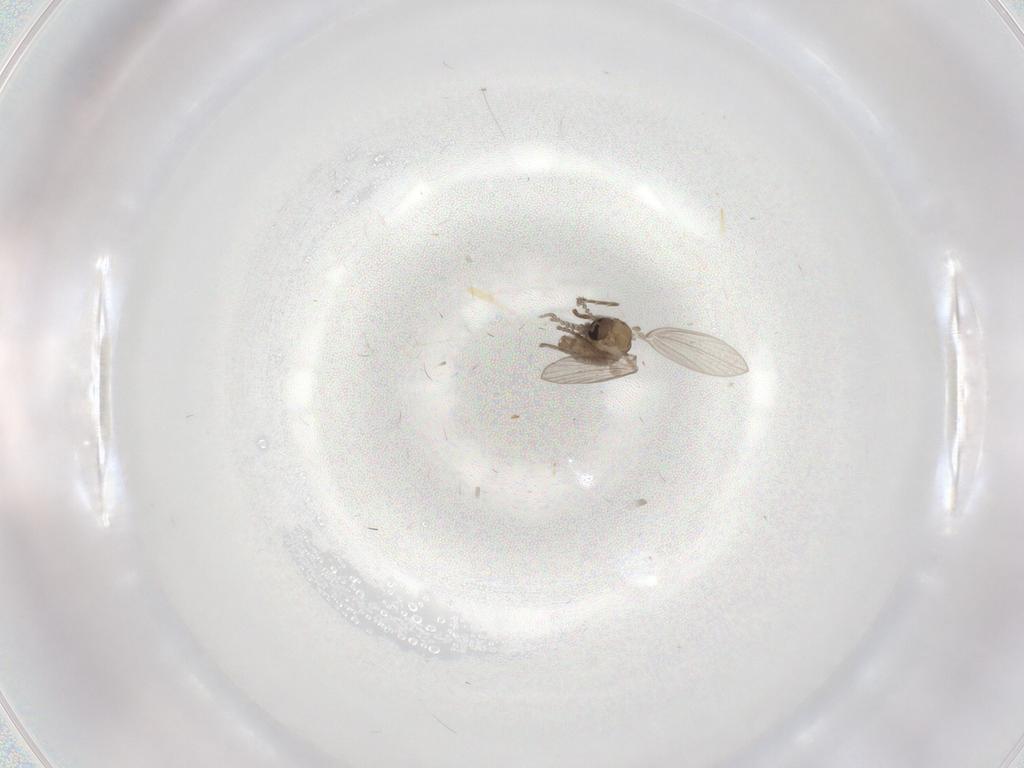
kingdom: Animalia
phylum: Arthropoda
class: Insecta
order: Diptera
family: Psychodidae
